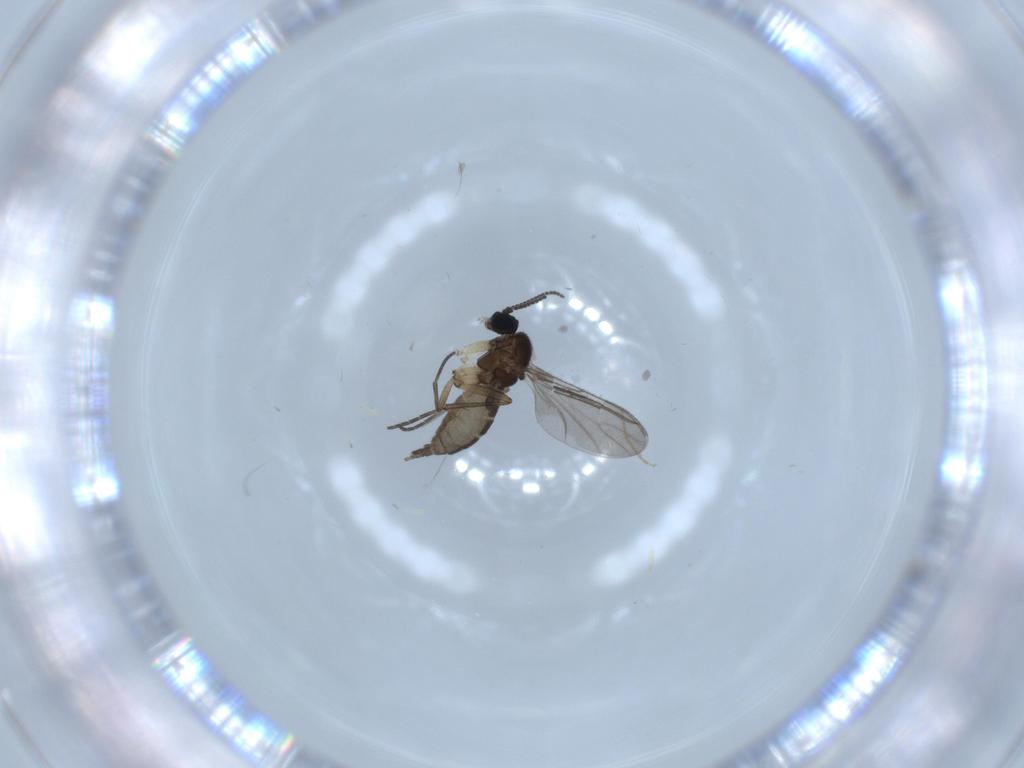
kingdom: Animalia
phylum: Arthropoda
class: Insecta
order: Diptera
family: Sciaridae
